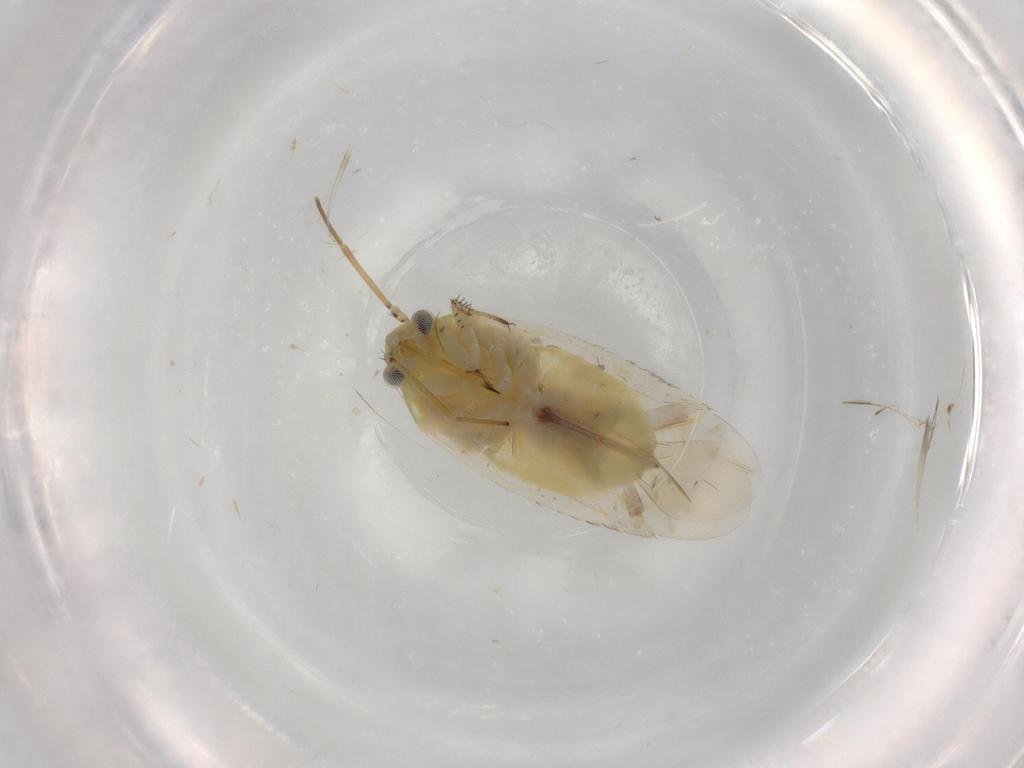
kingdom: Animalia
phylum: Arthropoda
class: Insecta
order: Hemiptera
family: Miridae
